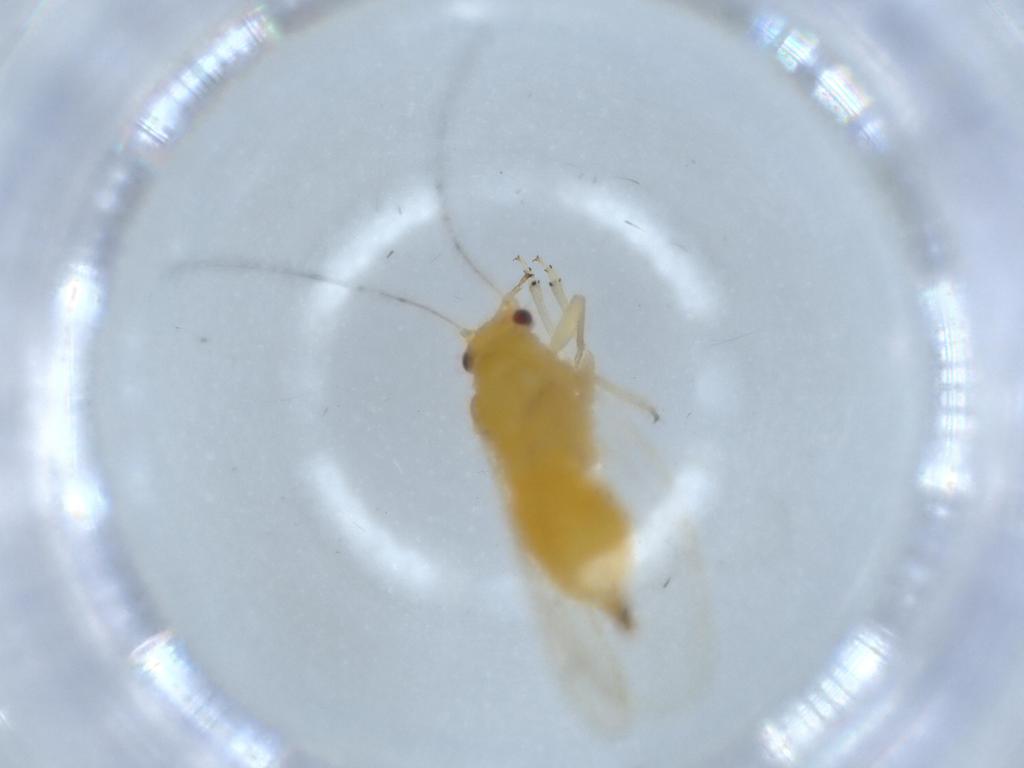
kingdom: Animalia
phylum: Arthropoda
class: Insecta
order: Hemiptera
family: Psyllidae
